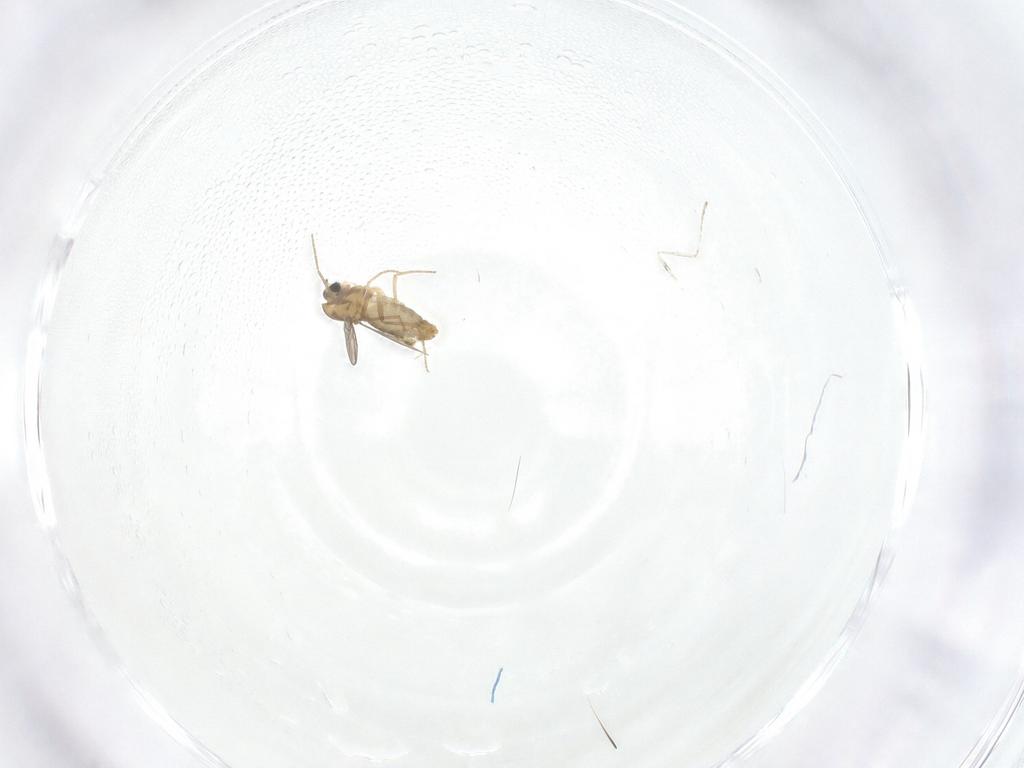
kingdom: Animalia
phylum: Arthropoda
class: Insecta
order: Diptera
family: Chironomidae
